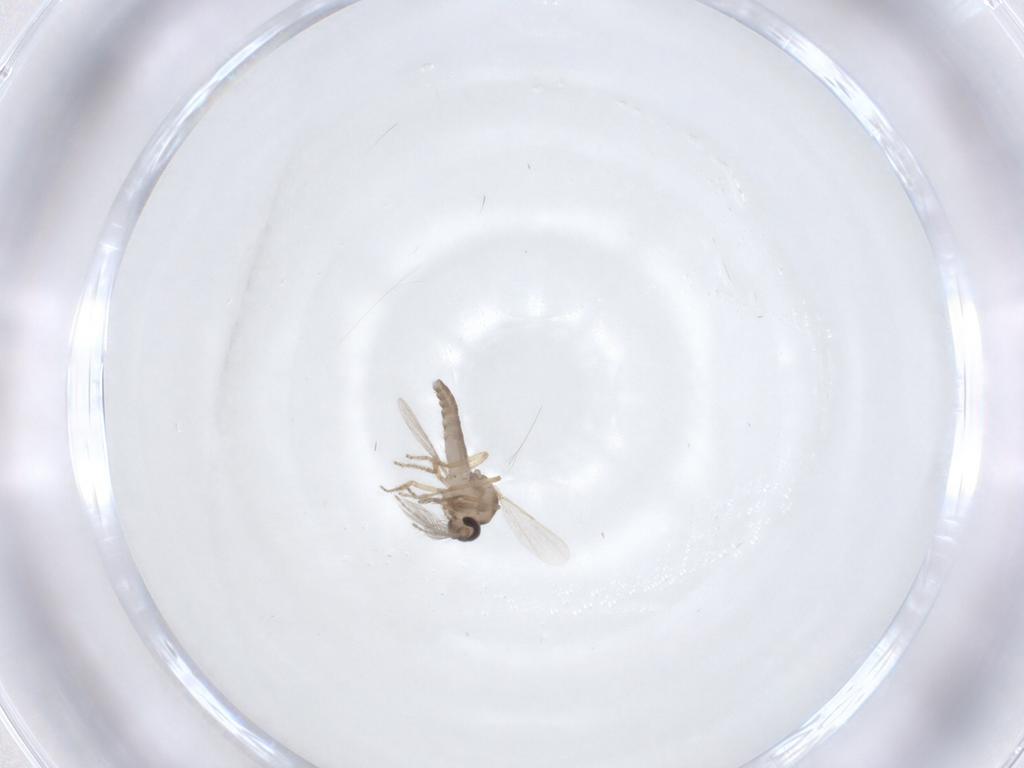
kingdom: Animalia
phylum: Arthropoda
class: Insecta
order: Diptera
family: Ceratopogonidae
